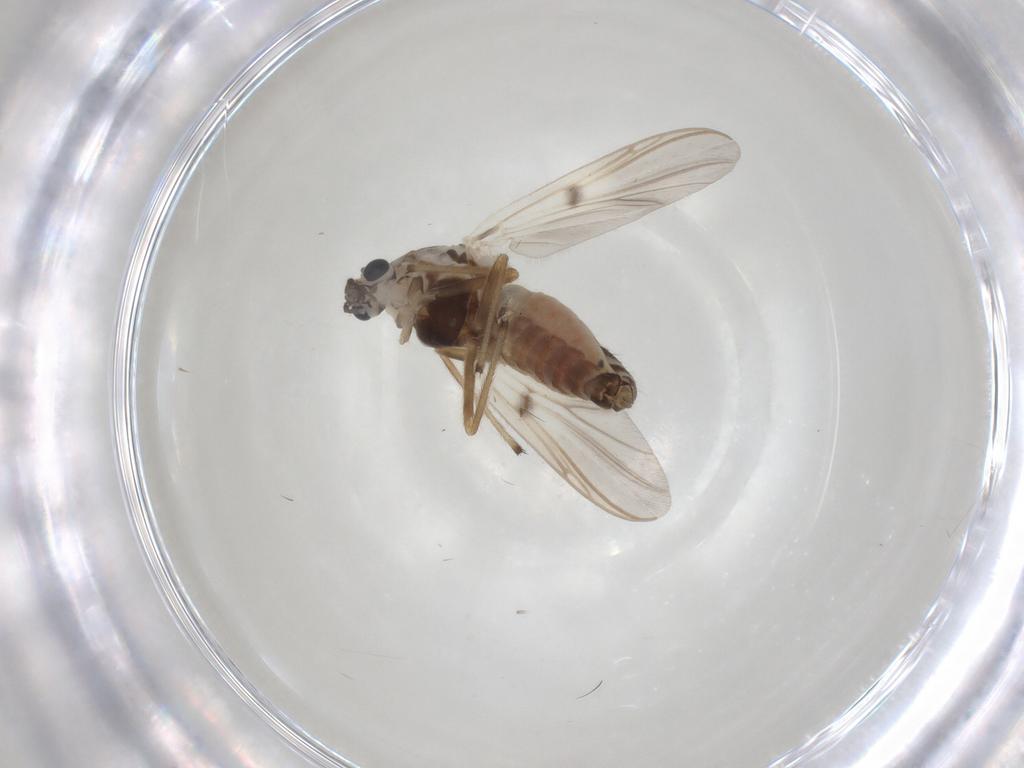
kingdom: Animalia
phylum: Arthropoda
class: Insecta
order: Diptera
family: Chironomidae
